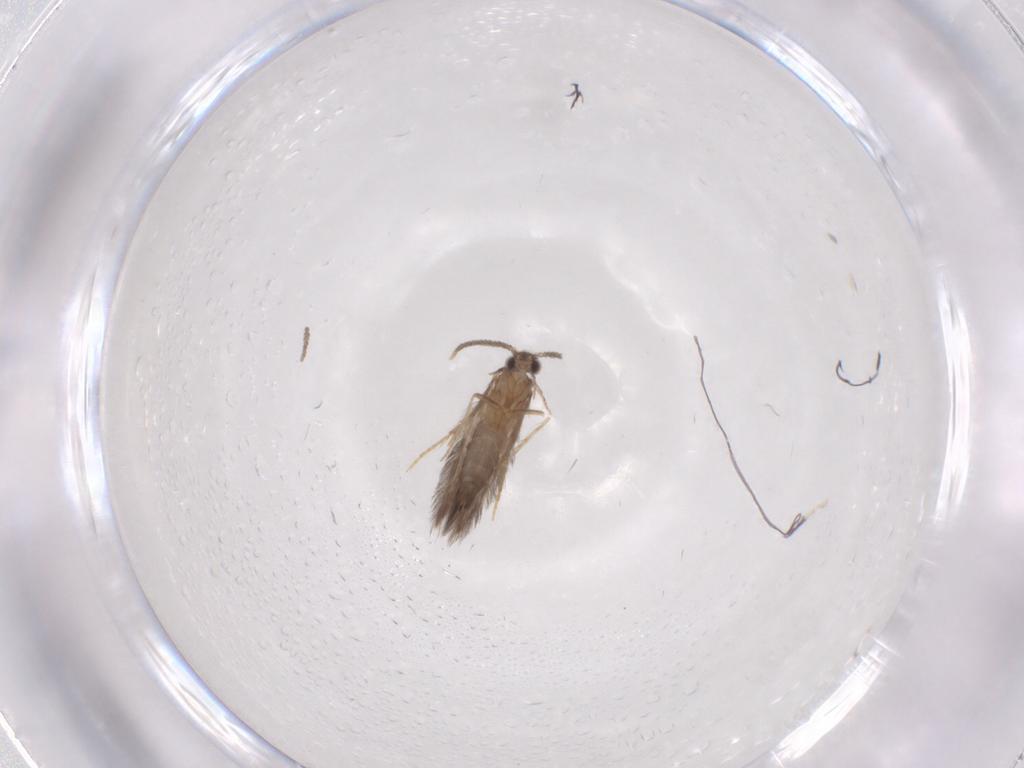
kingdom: Animalia
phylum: Arthropoda
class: Insecta
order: Trichoptera
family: Hydroptilidae
